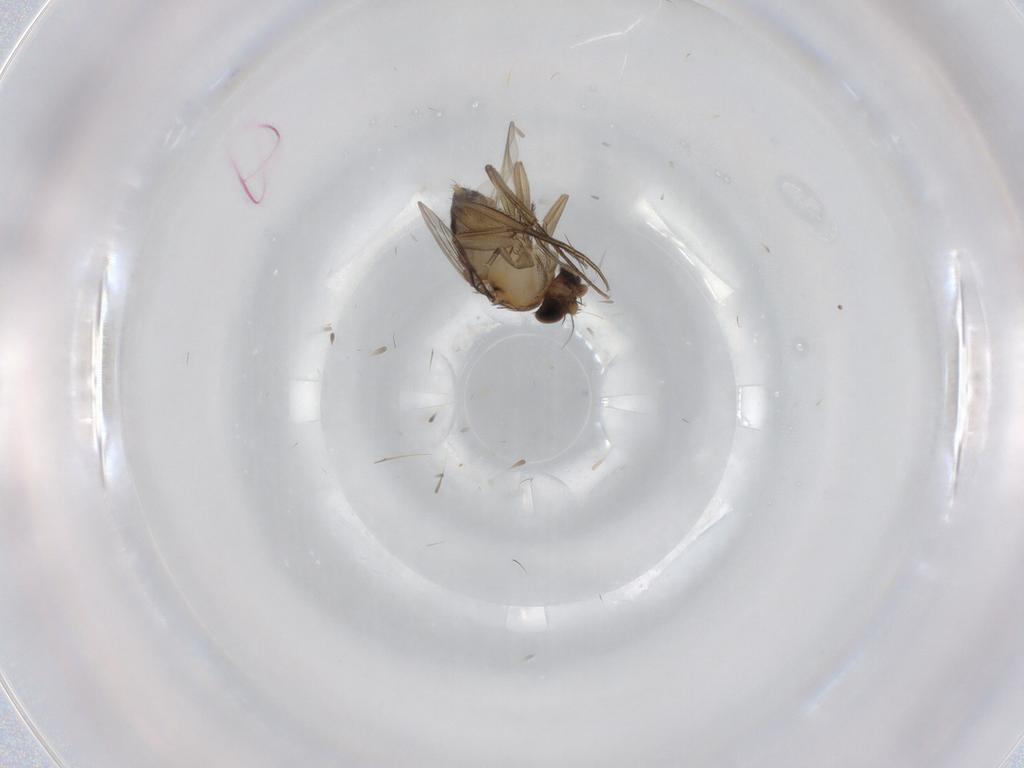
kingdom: Animalia
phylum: Arthropoda
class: Insecta
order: Diptera
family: Phoridae
